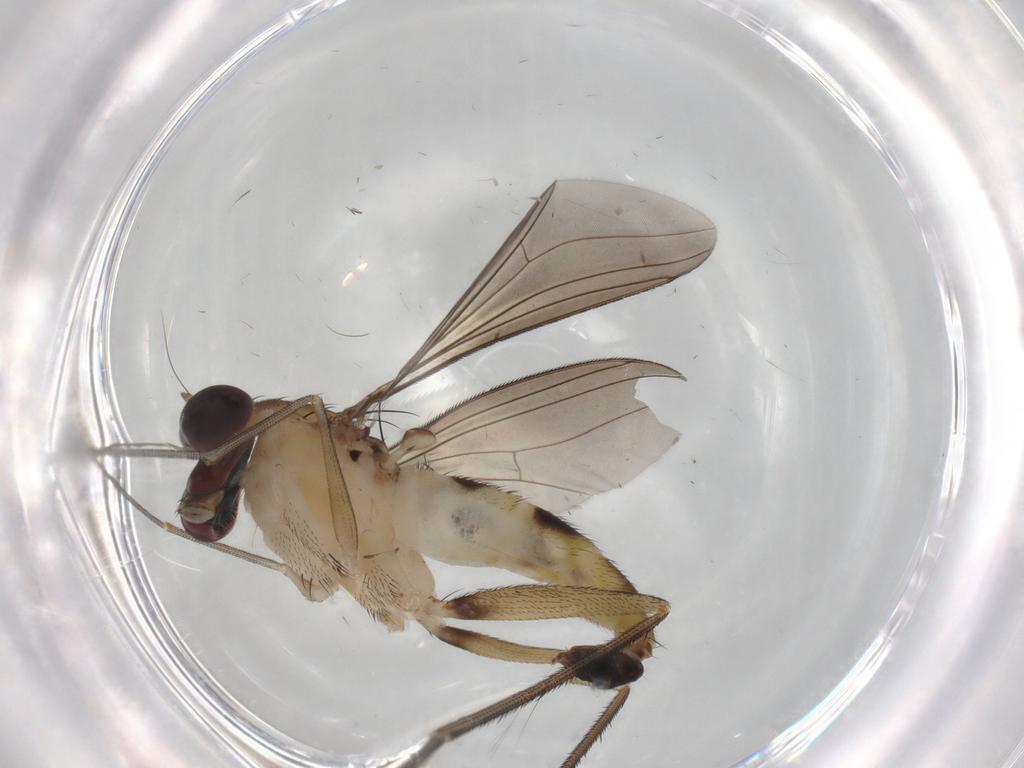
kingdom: Animalia
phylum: Arthropoda
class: Insecta
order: Diptera
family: Dolichopodidae
